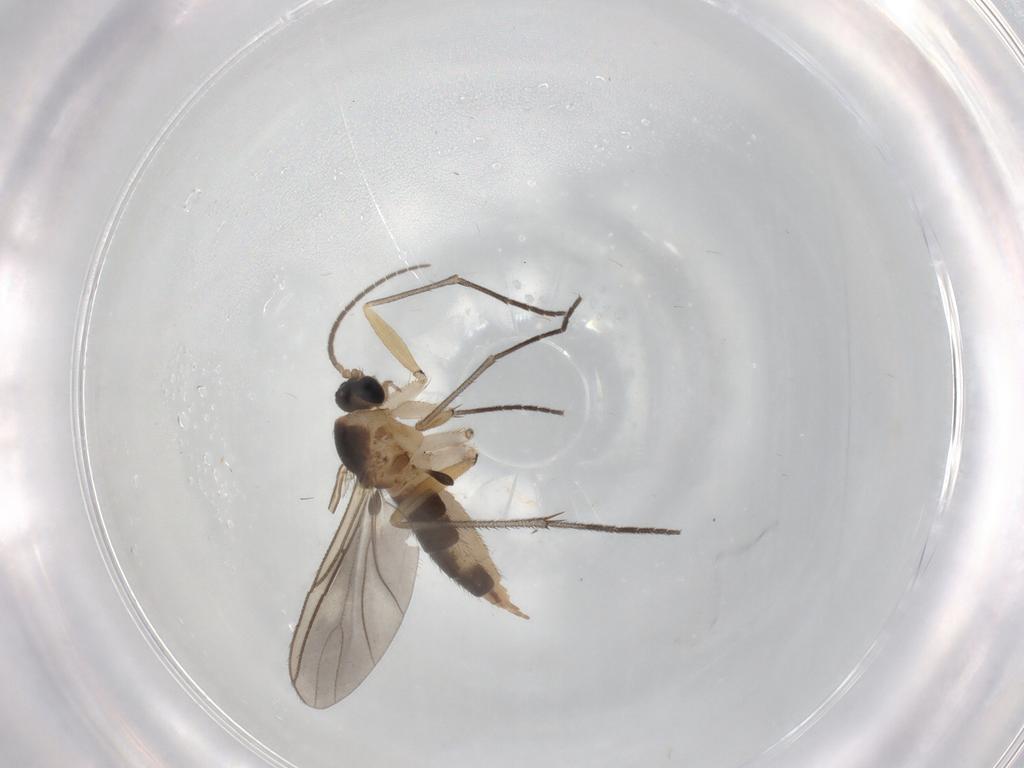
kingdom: Animalia
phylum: Arthropoda
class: Insecta
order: Diptera
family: Sciaridae
